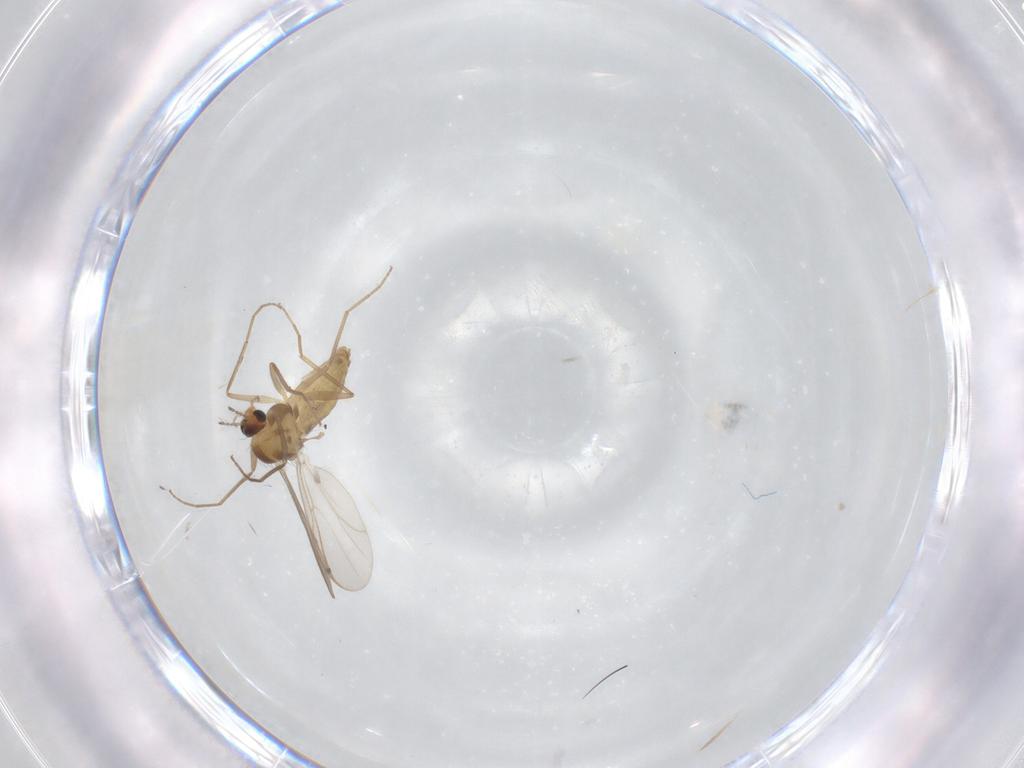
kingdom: Animalia
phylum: Arthropoda
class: Insecta
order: Diptera
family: Chironomidae
